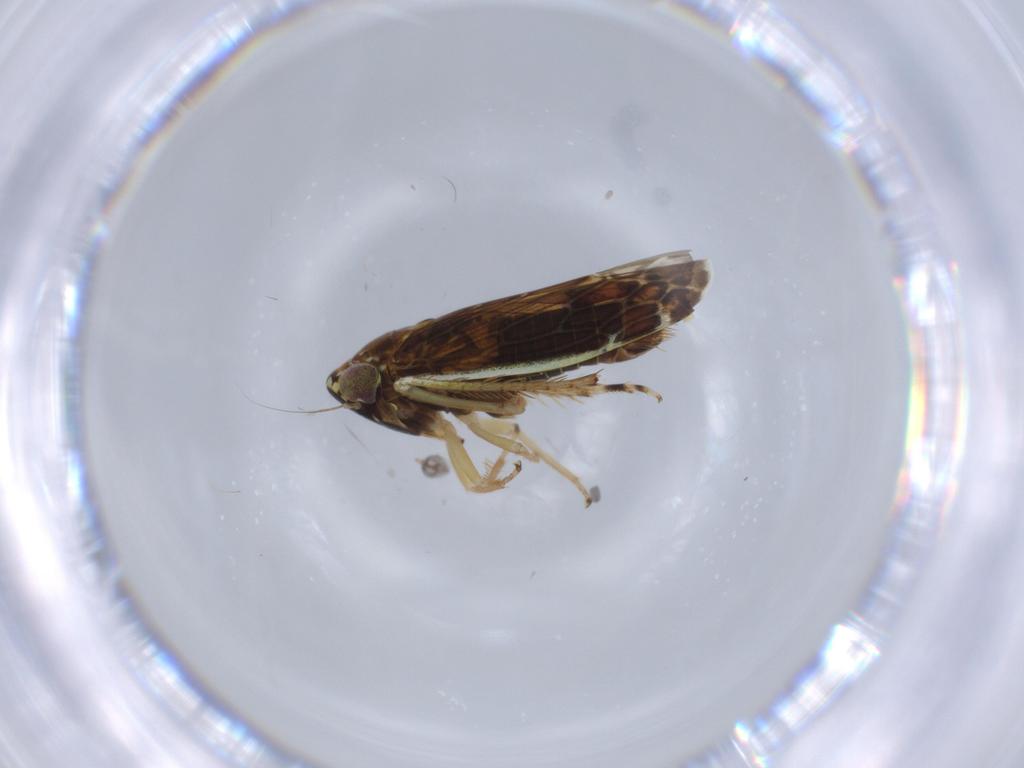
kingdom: Animalia
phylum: Arthropoda
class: Insecta
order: Hemiptera
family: Cicadellidae
